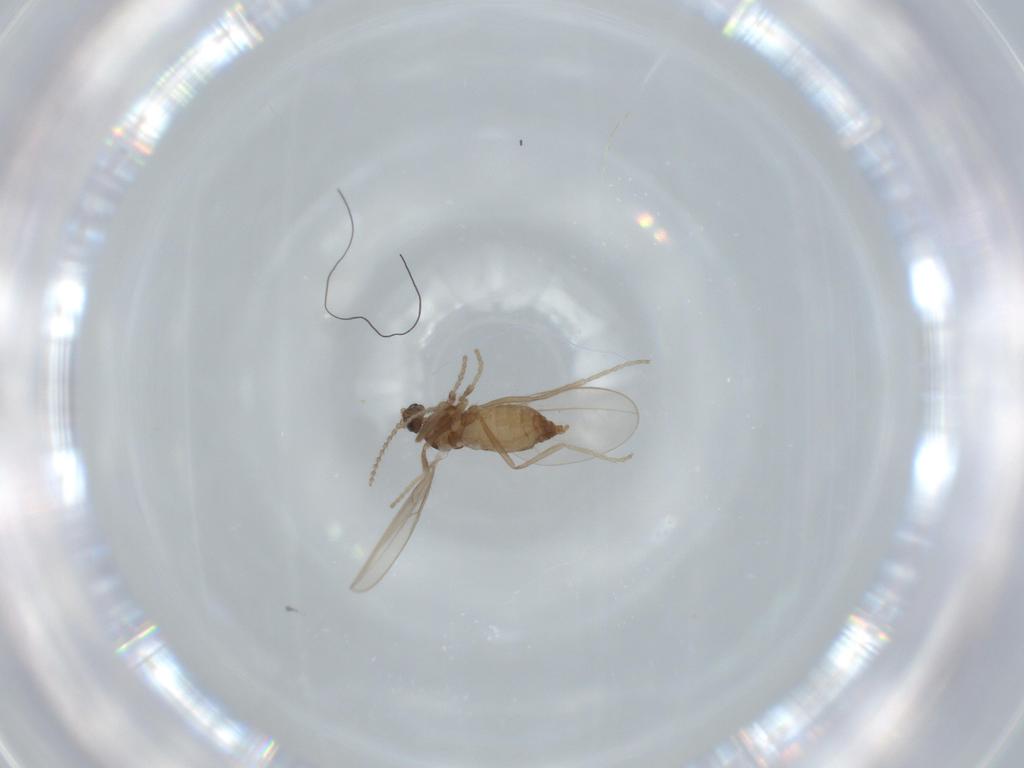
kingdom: Animalia
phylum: Arthropoda
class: Insecta
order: Diptera
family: Cecidomyiidae
